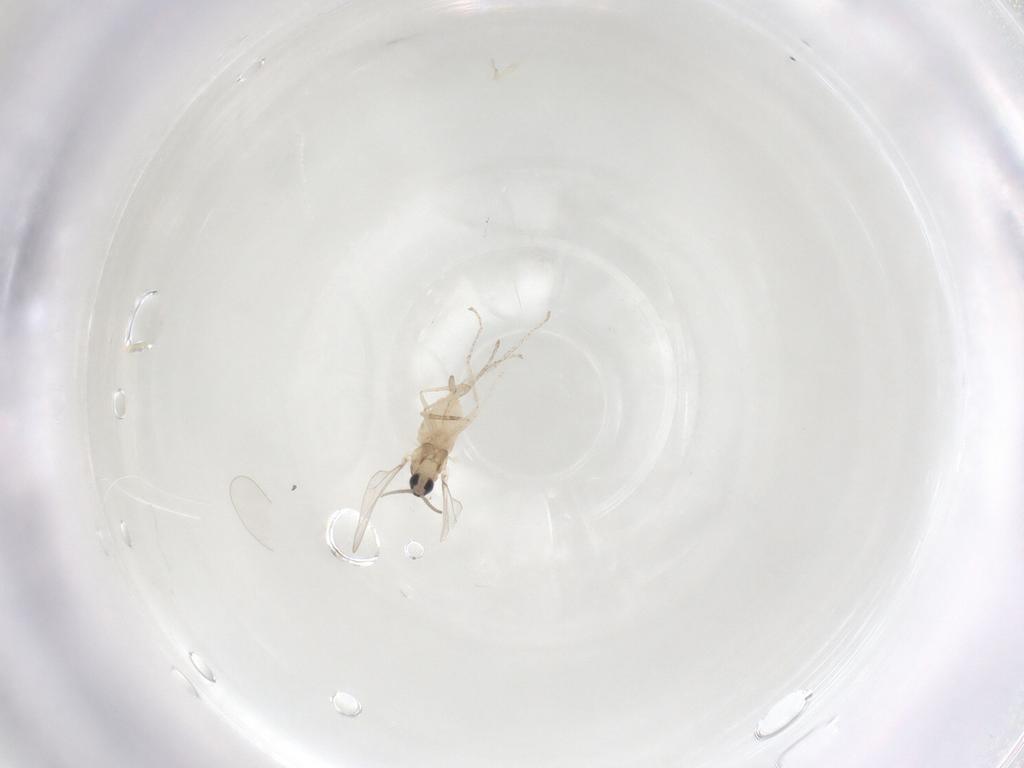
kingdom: Animalia
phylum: Arthropoda
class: Insecta
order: Diptera
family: Cecidomyiidae
